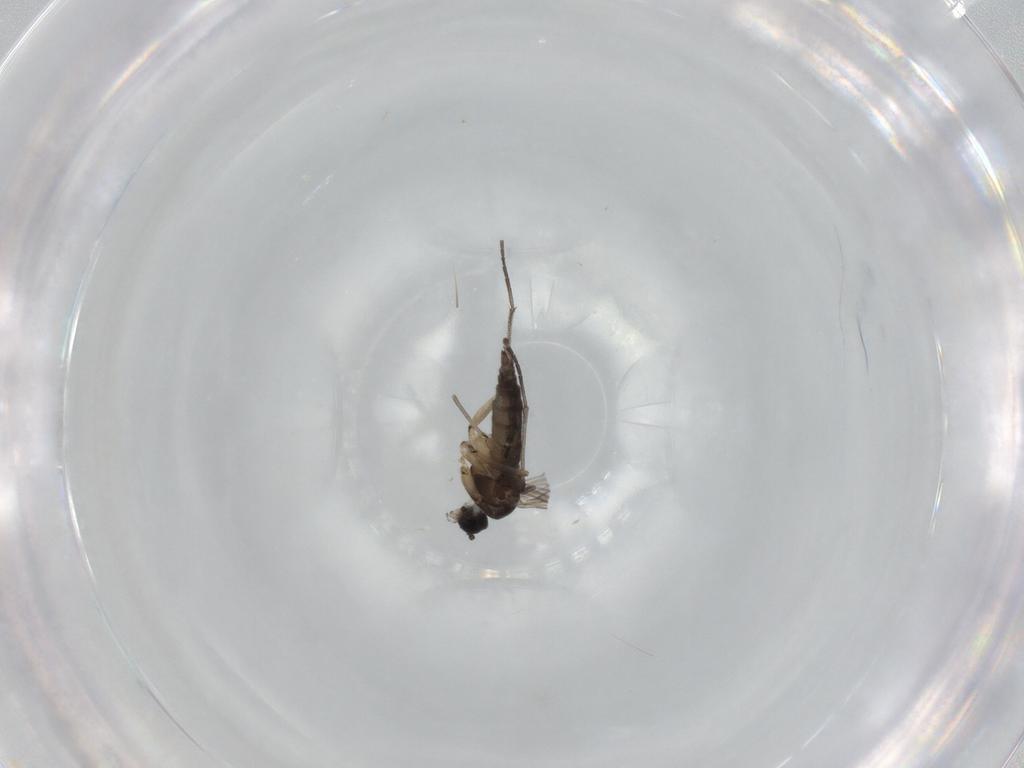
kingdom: Animalia
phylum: Arthropoda
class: Insecta
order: Diptera
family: Sciaridae
